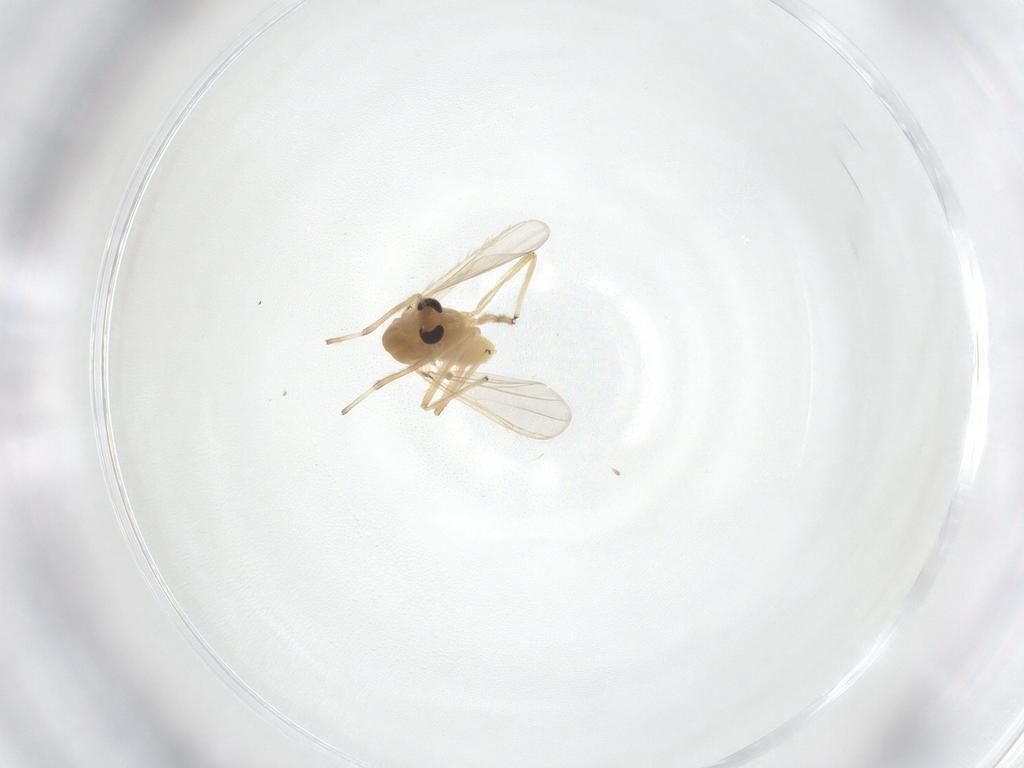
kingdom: Animalia
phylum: Arthropoda
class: Insecta
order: Diptera
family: Chironomidae
